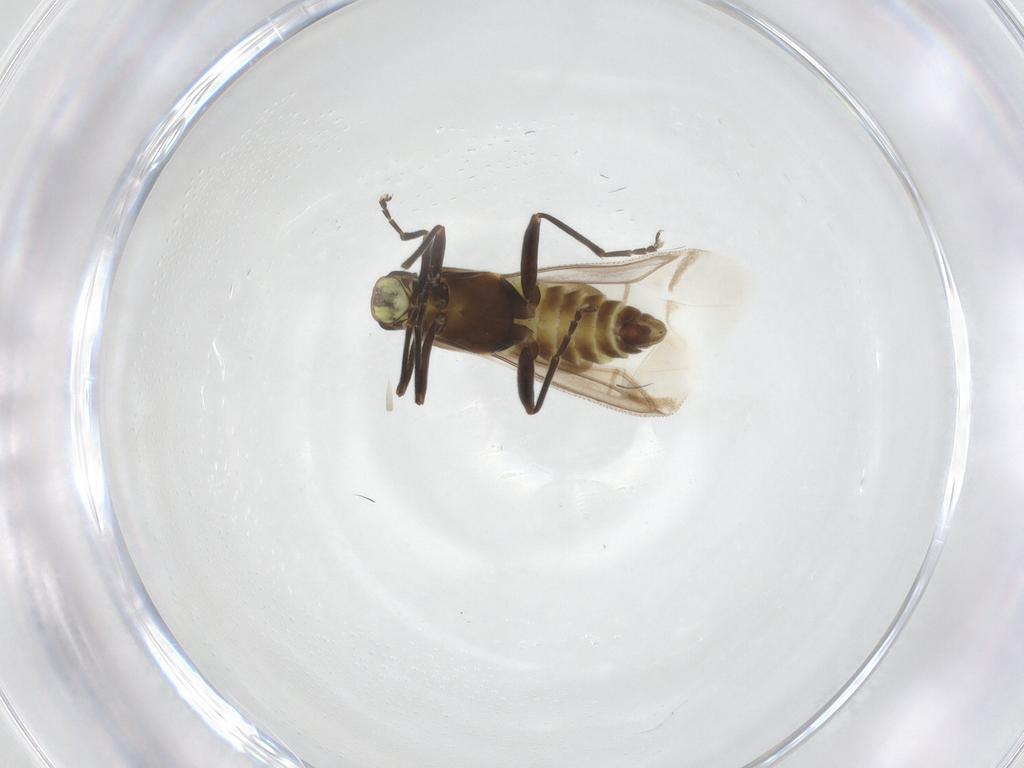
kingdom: Animalia
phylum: Arthropoda
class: Insecta
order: Coleoptera
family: Cantharidae
